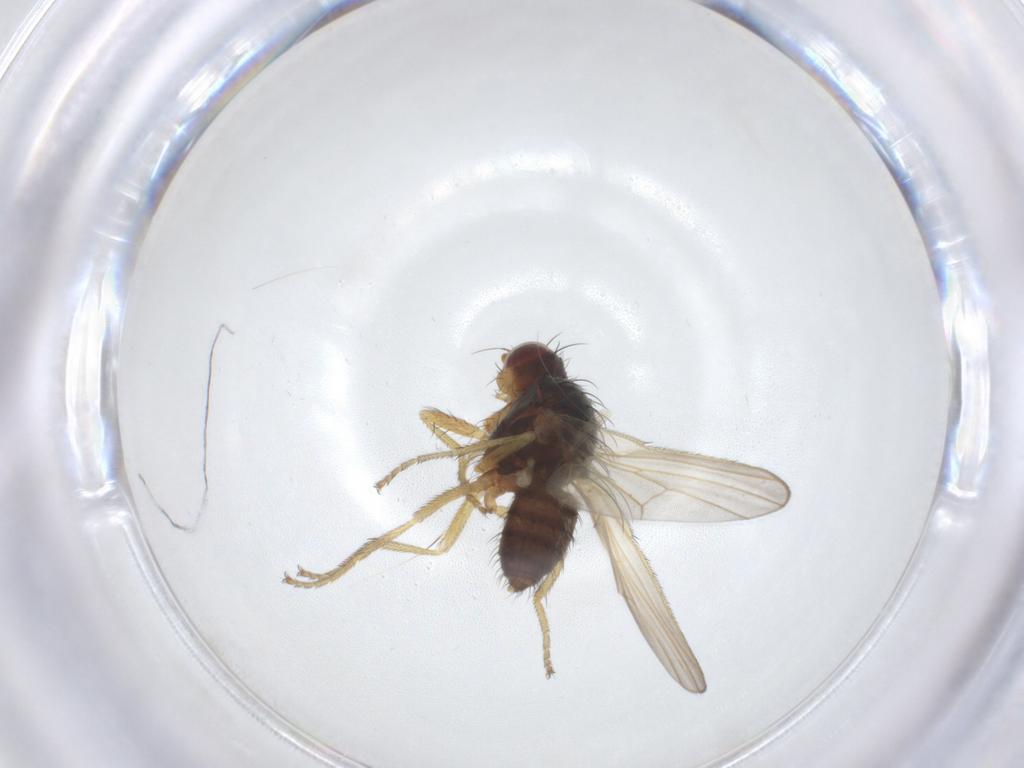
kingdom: Animalia
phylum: Arthropoda
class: Insecta
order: Diptera
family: Heleomyzidae
